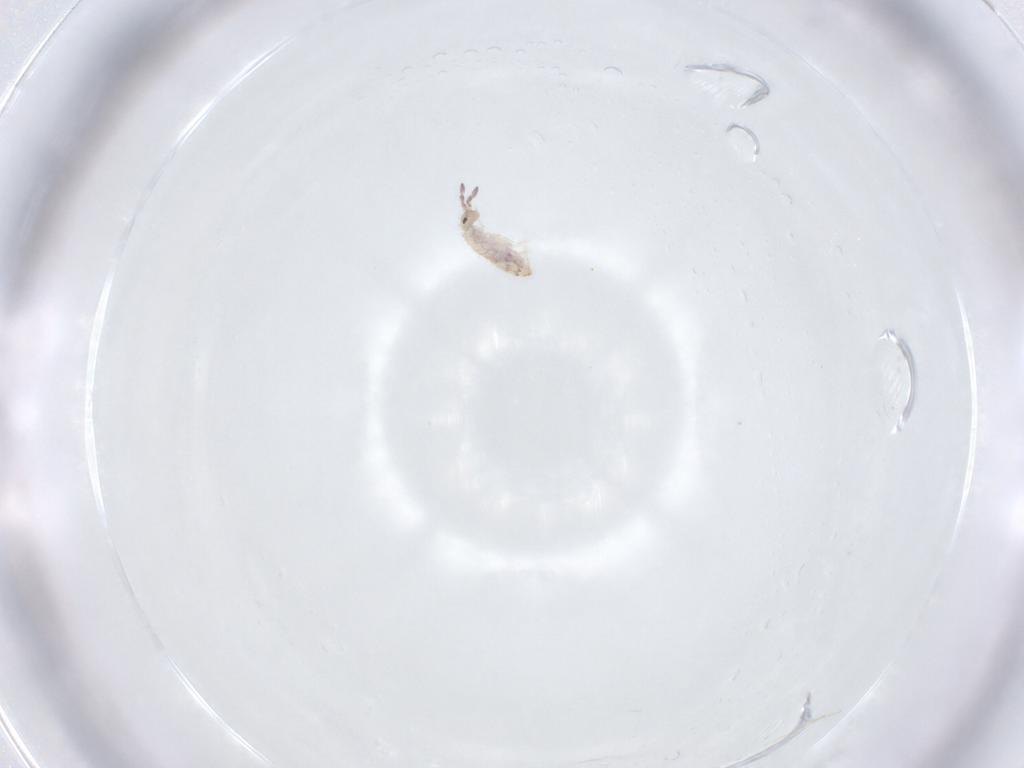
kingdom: Animalia
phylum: Arthropoda
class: Collembola
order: Entomobryomorpha
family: Entomobryidae
